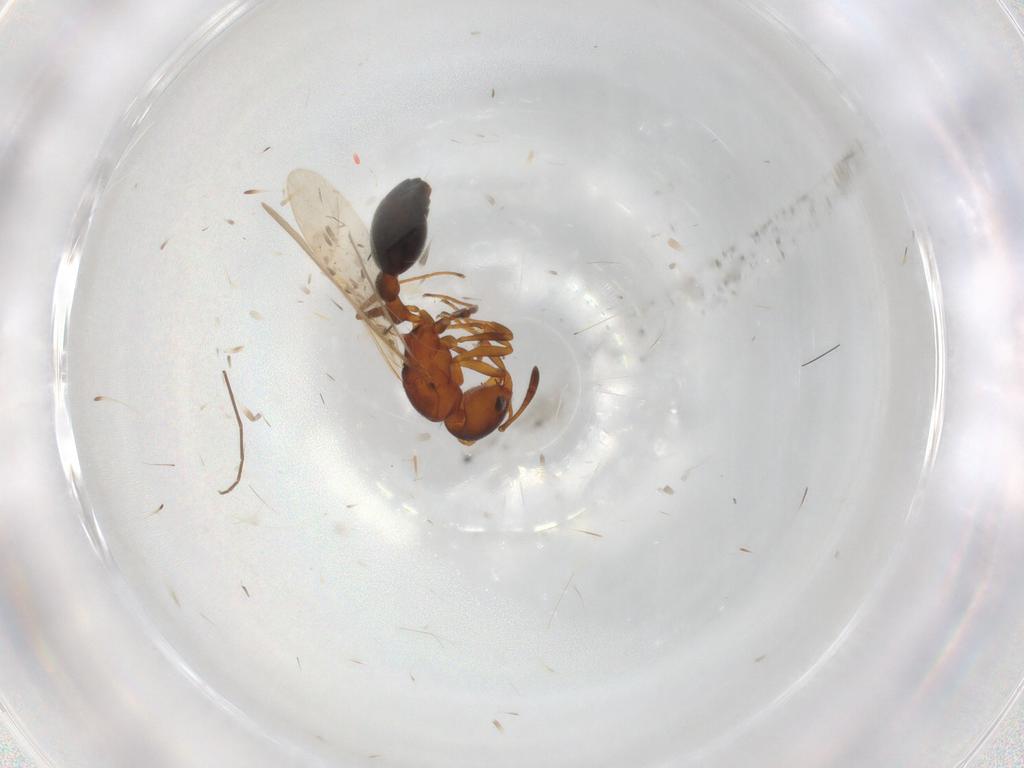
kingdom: Animalia
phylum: Arthropoda
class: Insecta
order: Hymenoptera
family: Formicidae
